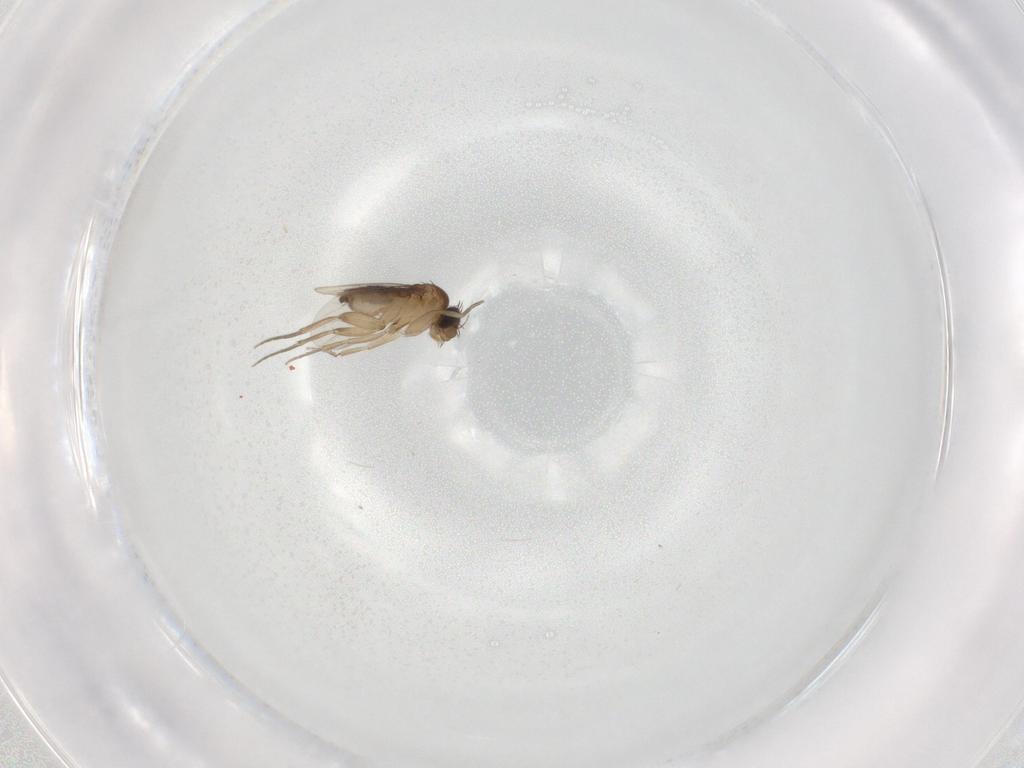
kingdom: Animalia
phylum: Arthropoda
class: Insecta
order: Diptera
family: Phoridae
